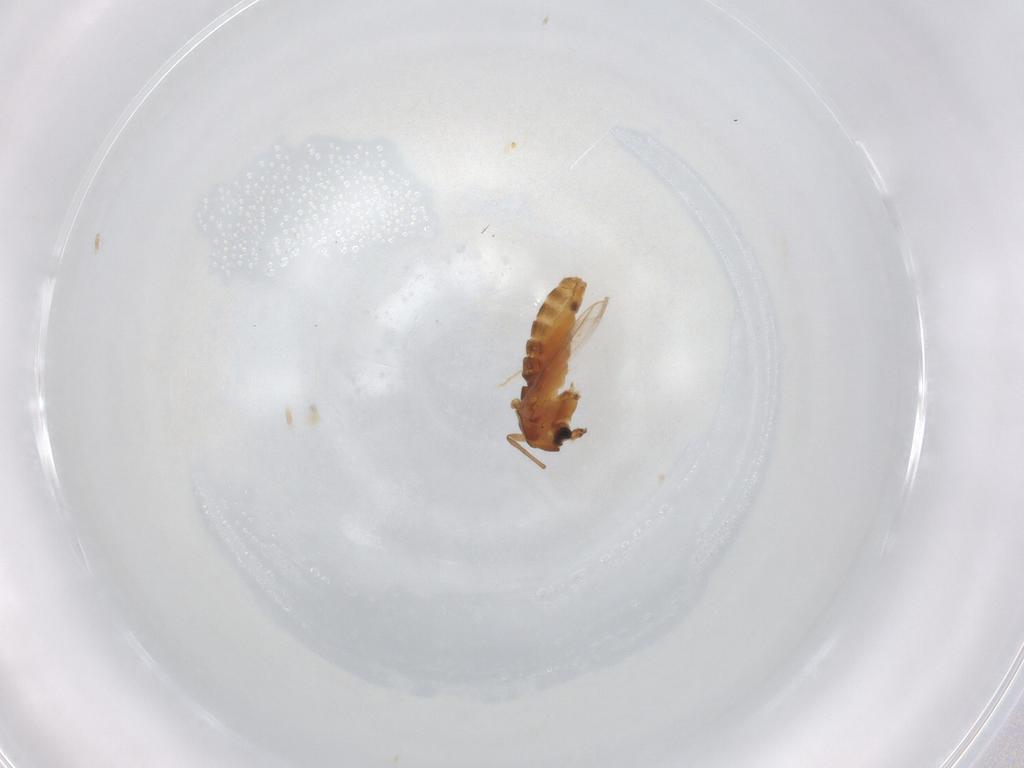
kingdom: Animalia
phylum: Arthropoda
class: Insecta
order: Diptera
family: Chironomidae
